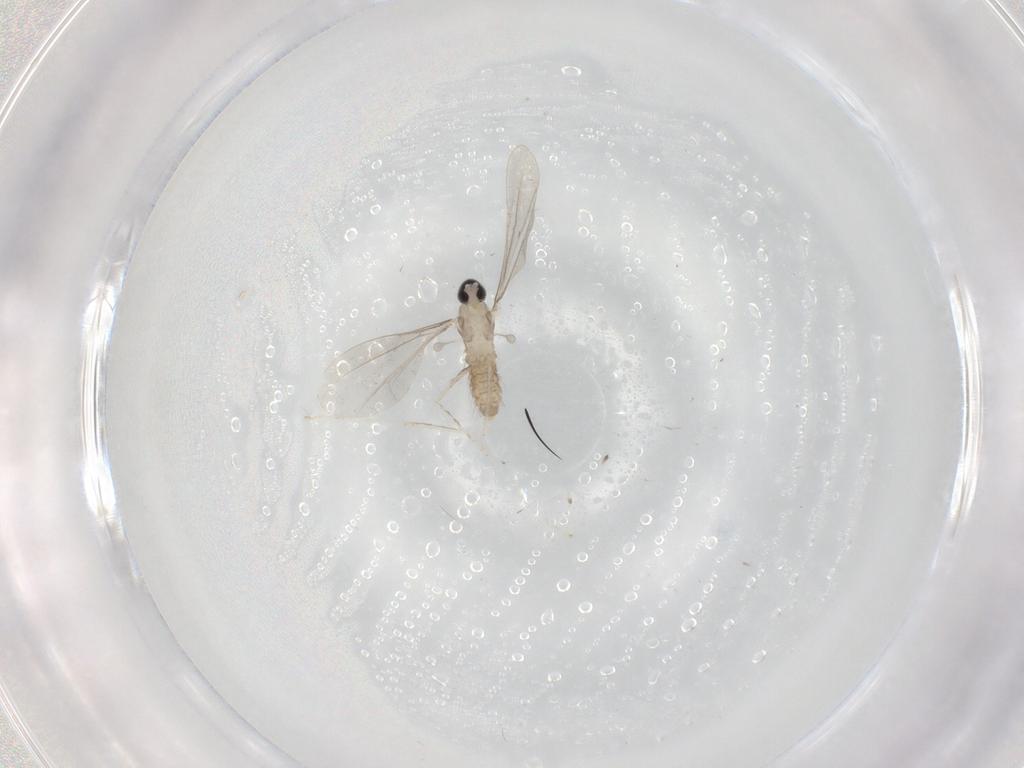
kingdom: Animalia
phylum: Arthropoda
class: Insecta
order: Diptera
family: Cecidomyiidae
